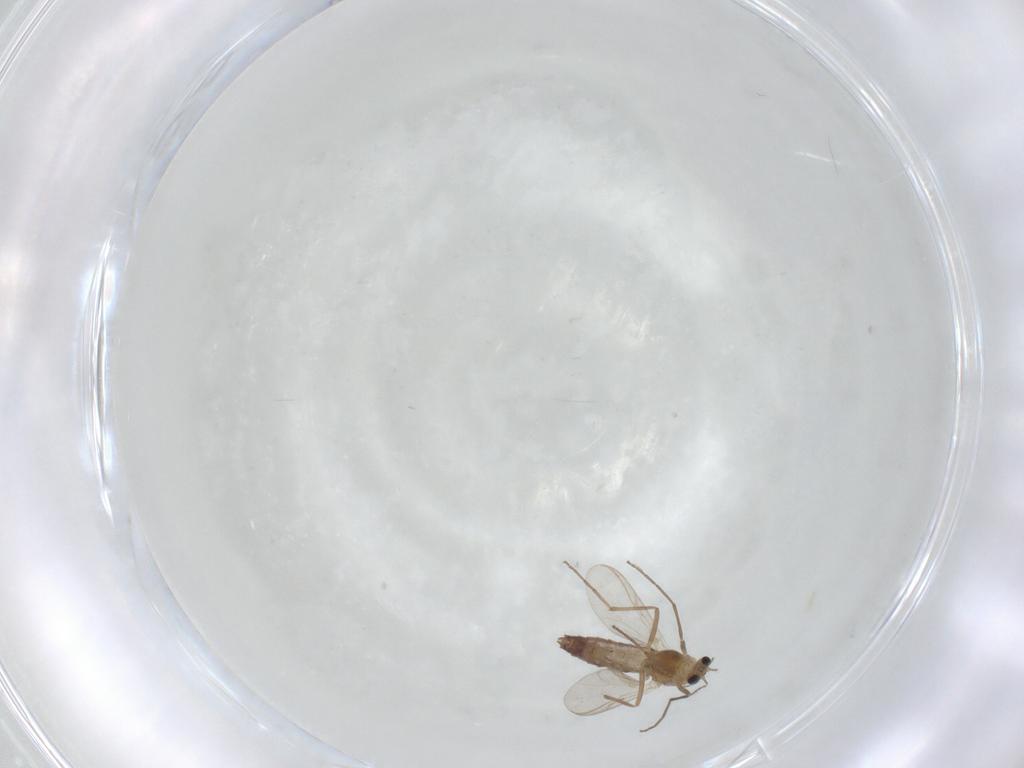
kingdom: Animalia
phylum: Arthropoda
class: Insecta
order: Diptera
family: Chironomidae
